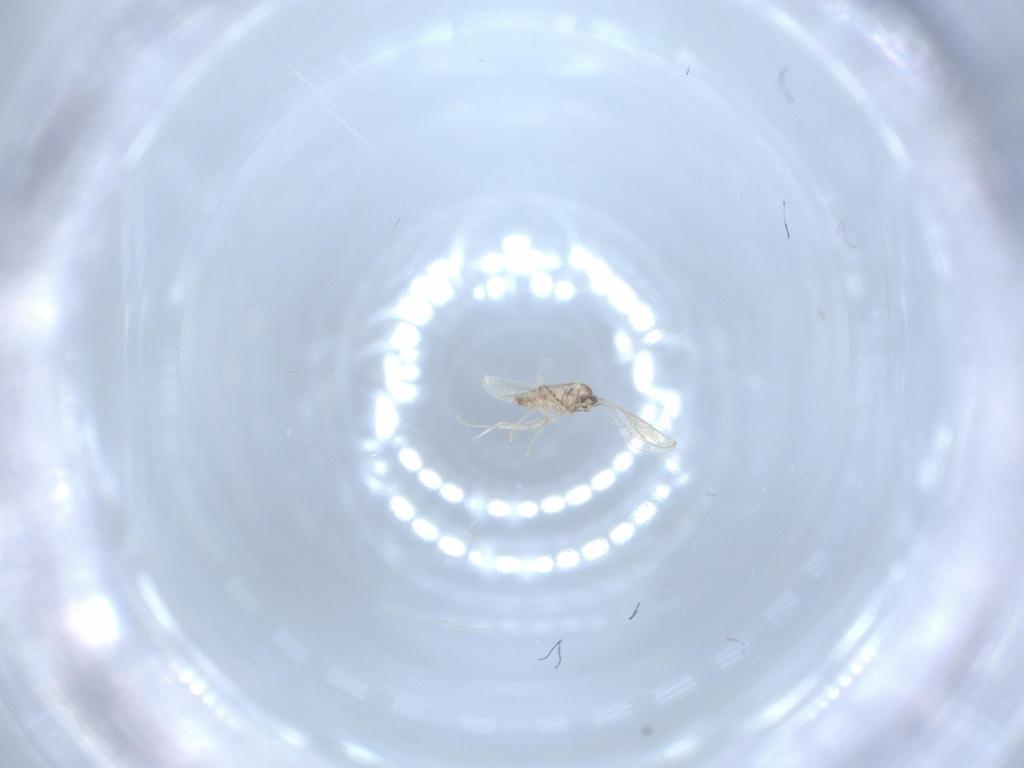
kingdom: Animalia
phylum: Arthropoda
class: Insecta
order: Diptera
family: Cecidomyiidae
